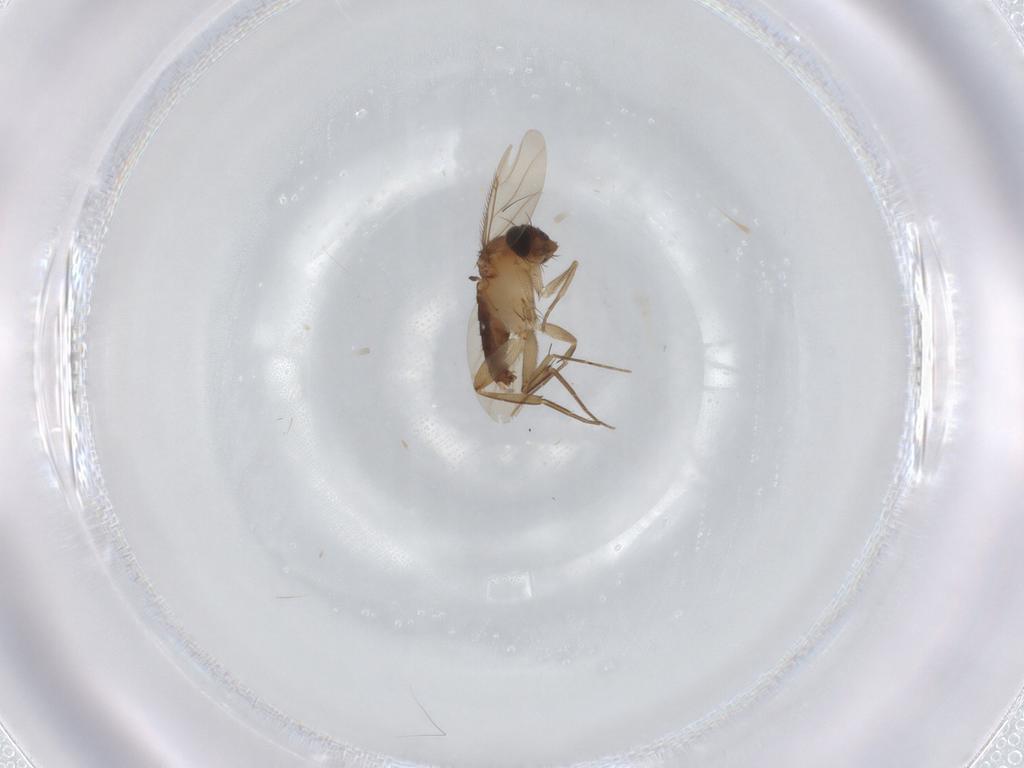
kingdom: Animalia
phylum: Arthropoda
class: Insecta
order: Diptera
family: Phoridae
